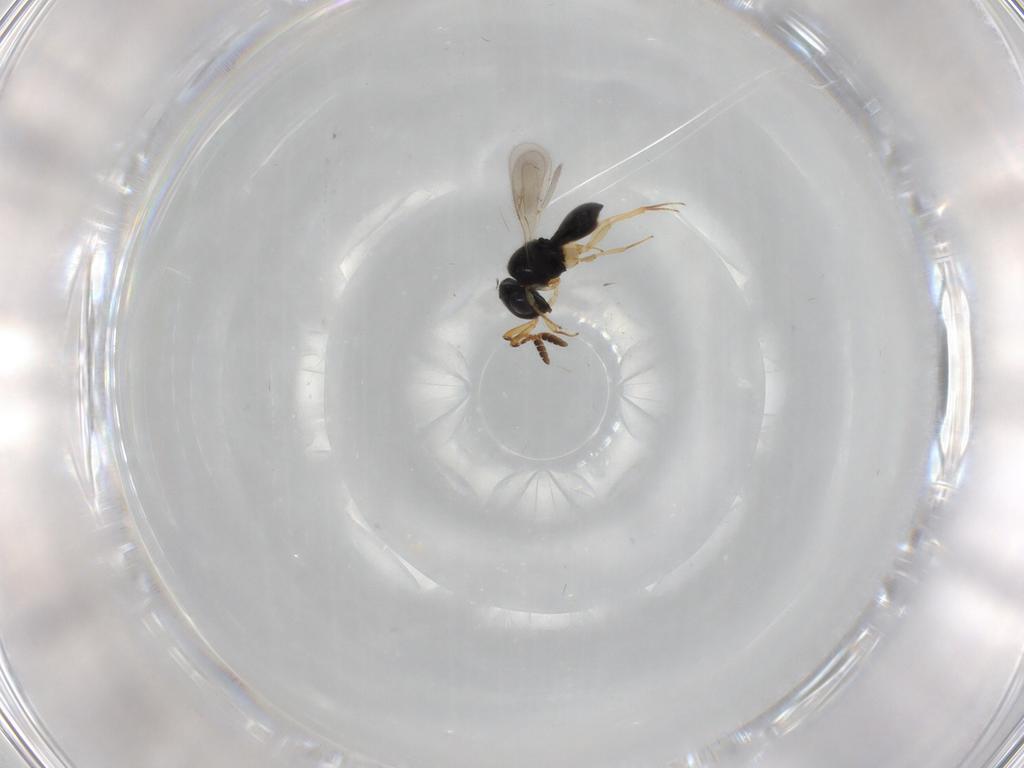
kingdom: Animalia
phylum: Arthropoda
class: Insecta
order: Hymenoptera
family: Scelionidae
